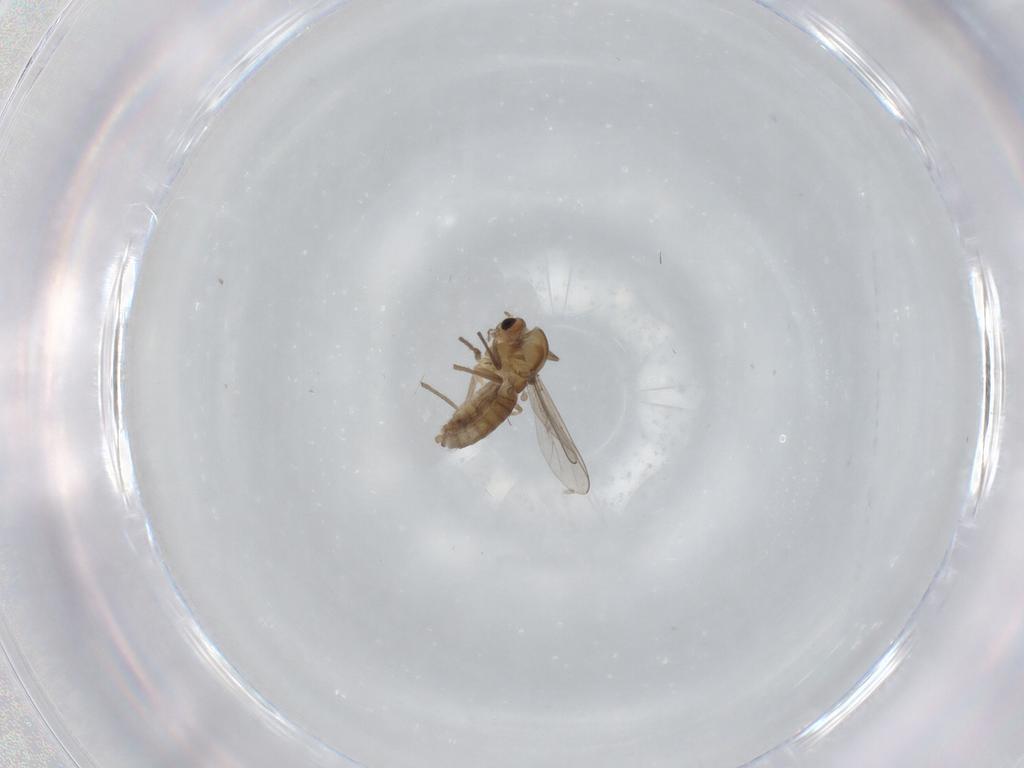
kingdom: Animalia
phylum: Arthropoda
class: Insecta
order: Diptera
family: Chironomidae
